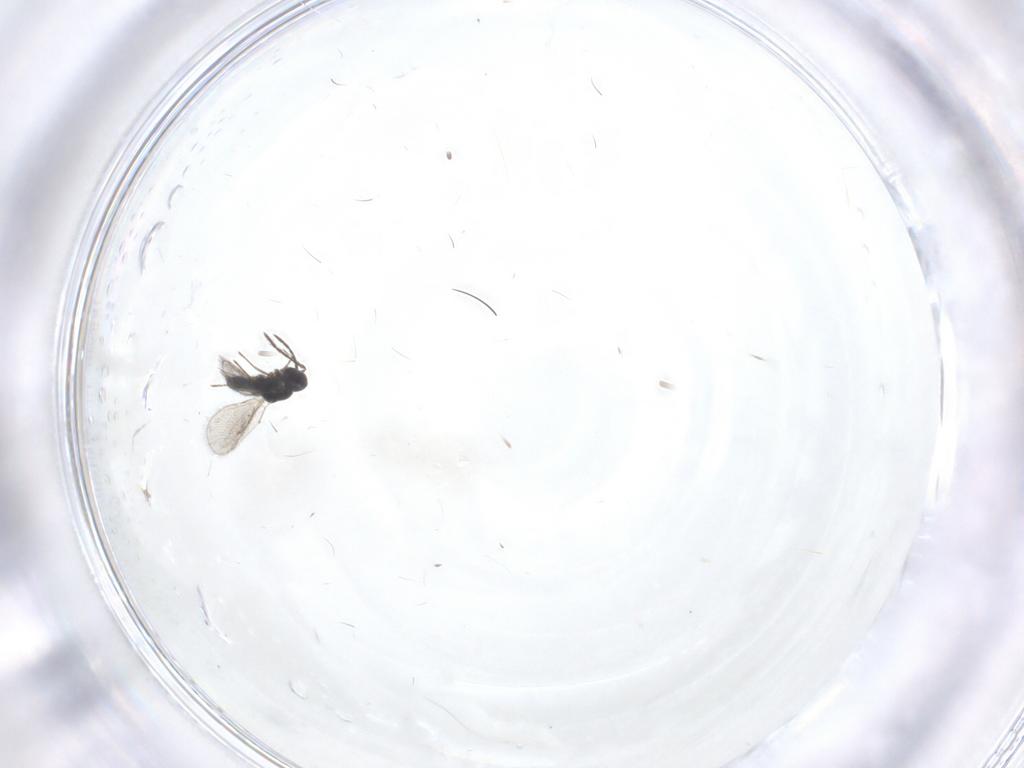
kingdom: Animalia
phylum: Arthropoda
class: Insecta
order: Hymenoptera
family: Eulophidae
